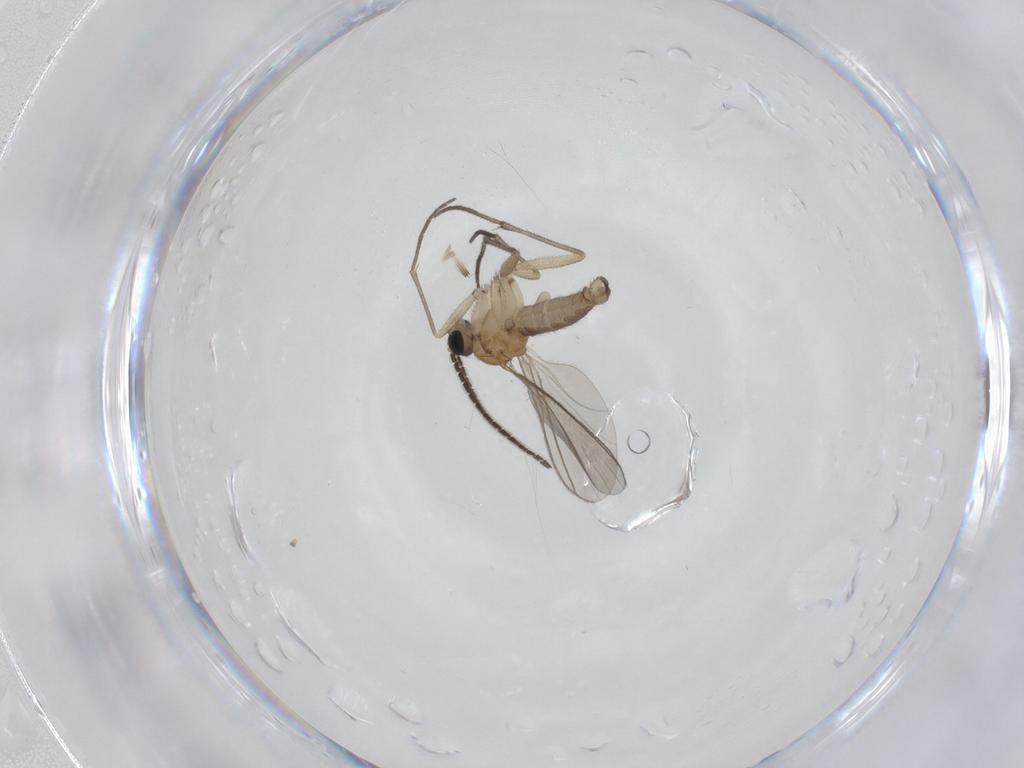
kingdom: Animalia
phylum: Arthropoda
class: Insecta
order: Diptera
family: Sciaridae
